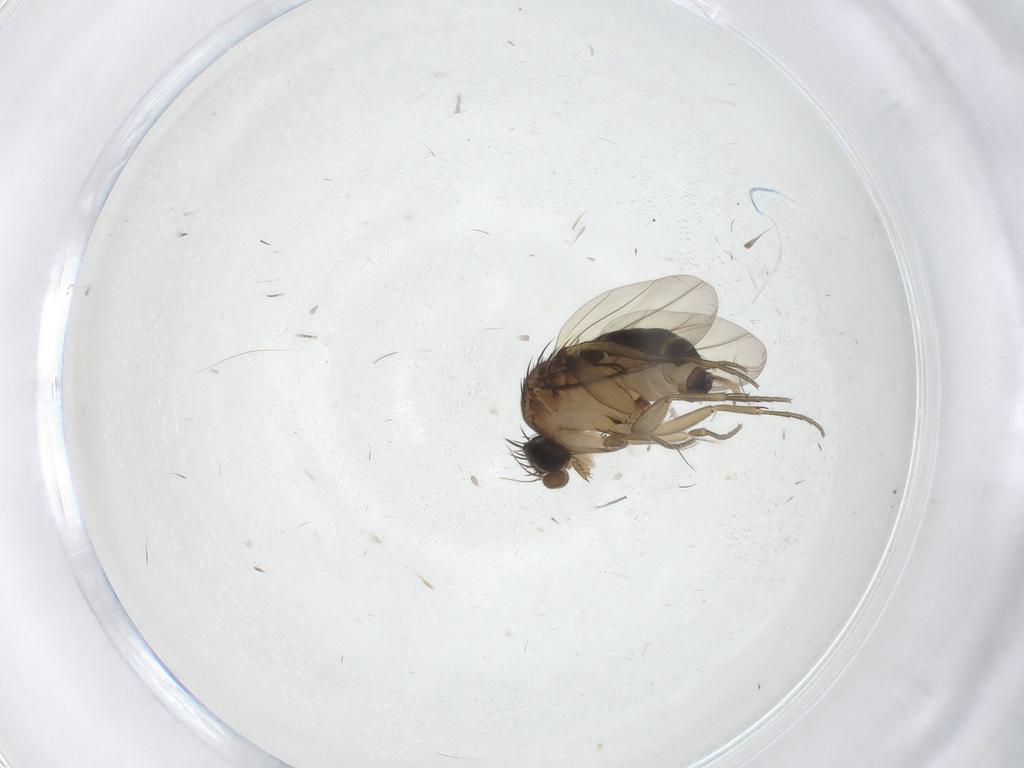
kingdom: Animalia
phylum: Arthropoda
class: Insecta
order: Diptera
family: Phoridae
